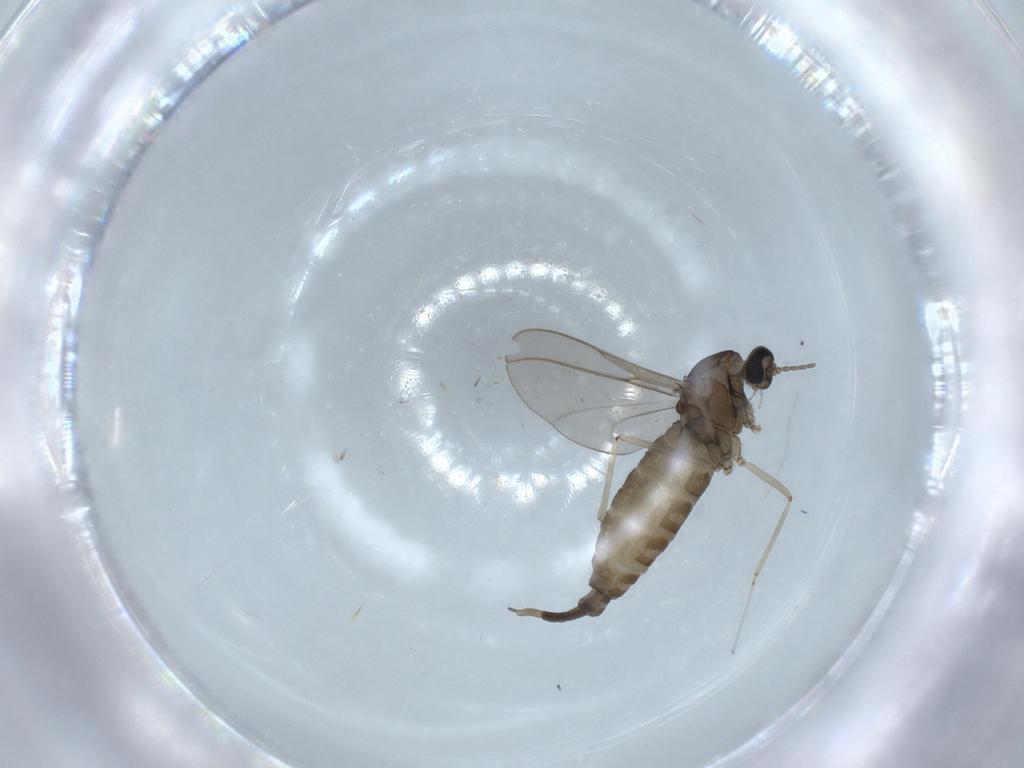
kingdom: Animalia
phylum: Arthropoda
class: Insecta
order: Diptera
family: Cecidomyiidae
